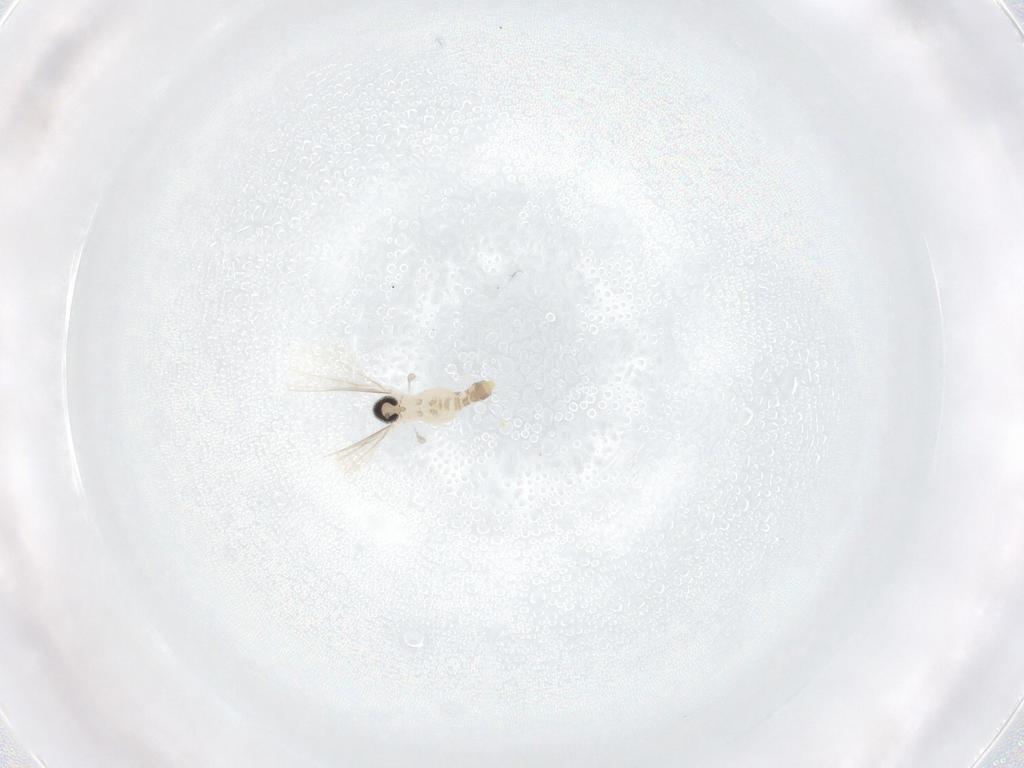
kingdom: Animalia
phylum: Arthropoda
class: Insecta
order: Diptera
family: Cecidomyiidae
